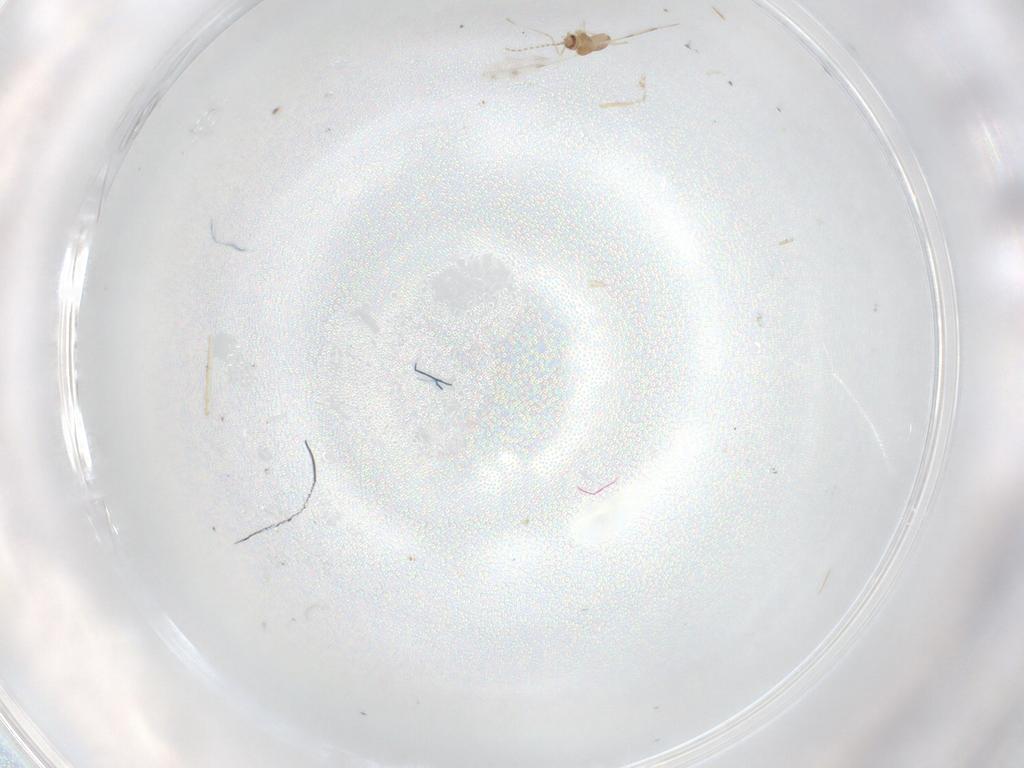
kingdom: Animalia
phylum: Arthropoda
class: Insecta
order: Diptera
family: Cecidomyiidae
